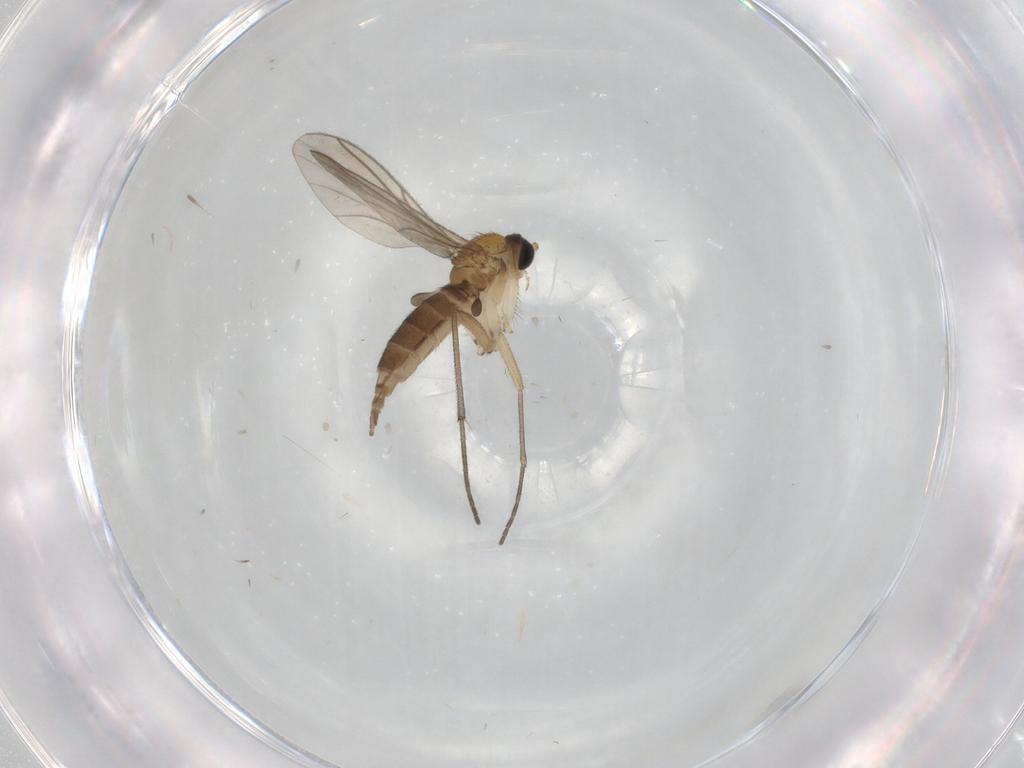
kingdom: Animalia
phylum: Arthropoda
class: Insecta
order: Diptera
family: Sciaridae
